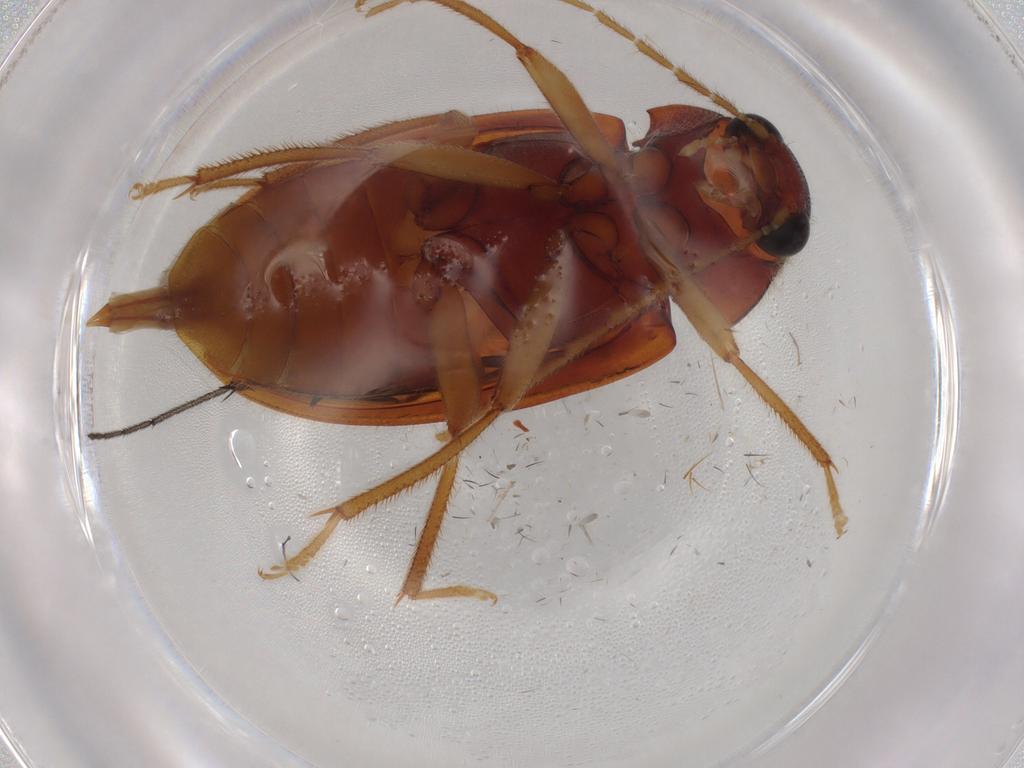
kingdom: Animalia
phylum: Arthropoda
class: Insecta
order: Coleoptera
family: Ptilodactylidae
